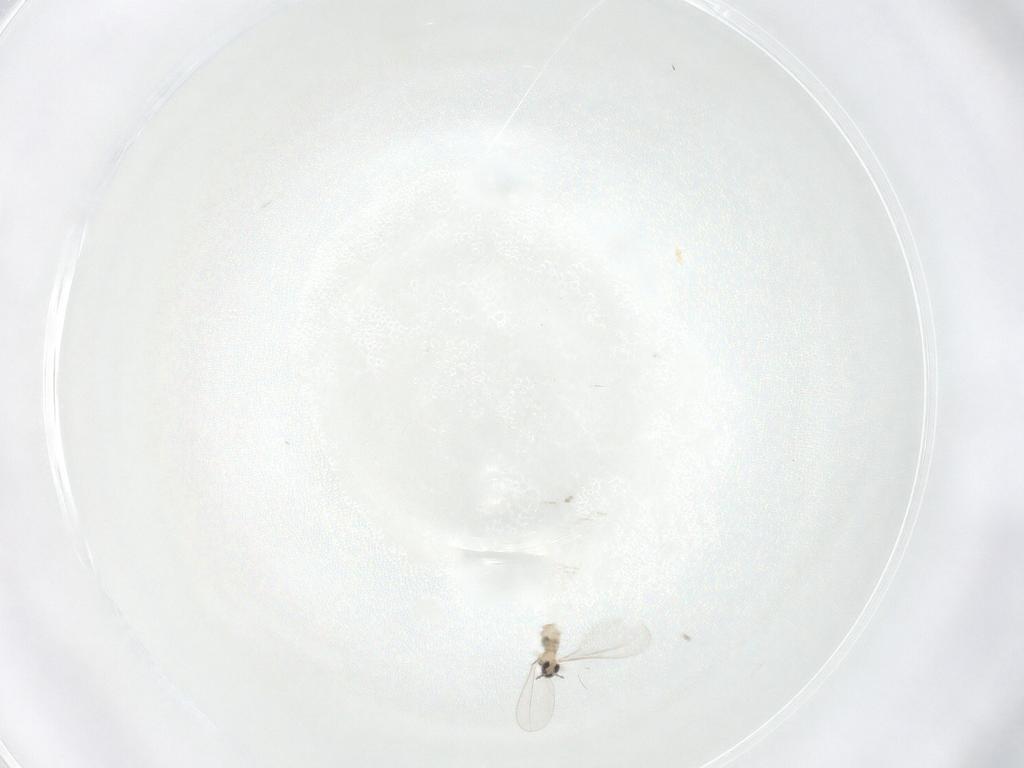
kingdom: Animalia
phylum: Arthropoda
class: Insecta
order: Diptera
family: Cecidomyiidae
